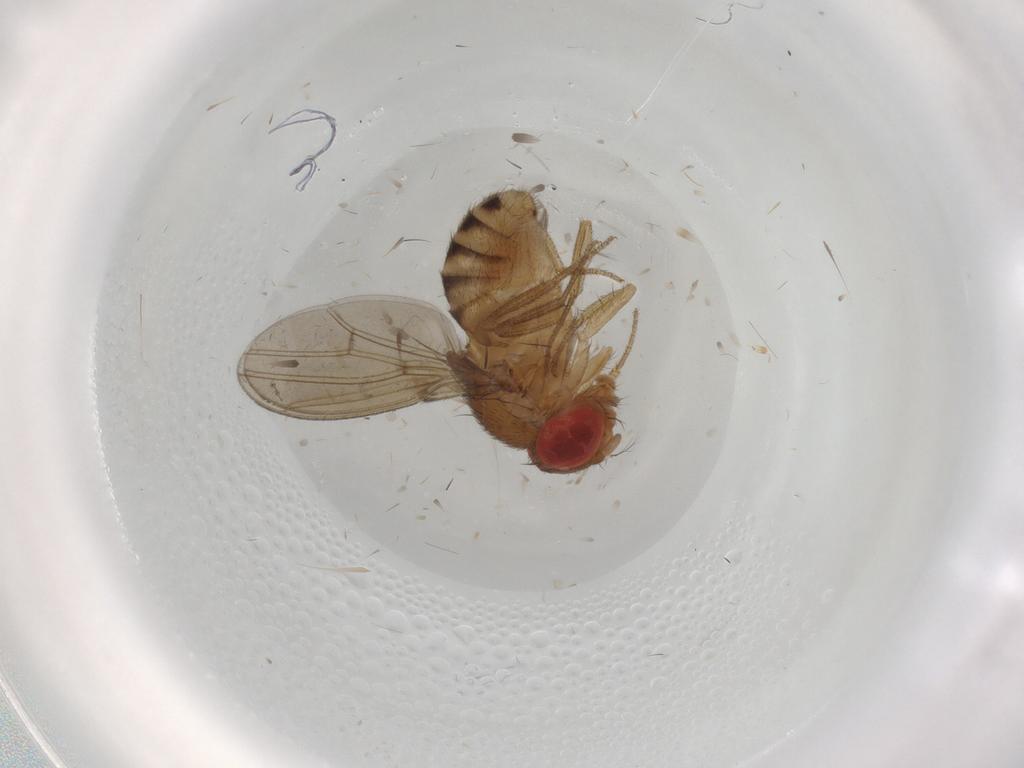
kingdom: Animalia
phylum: Arthropoda
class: Insecta
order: Diptera
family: Drosophilidae
